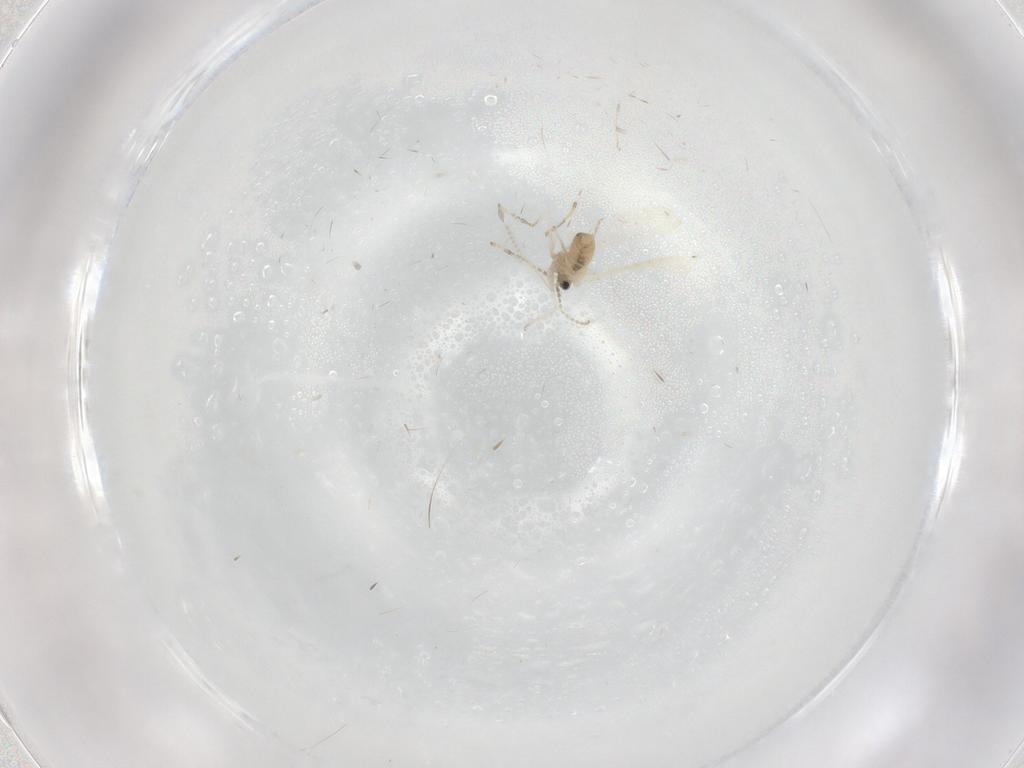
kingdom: Animalia
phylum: Arthropoda
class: Insecta
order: Diptera
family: Cecidomyiidae
